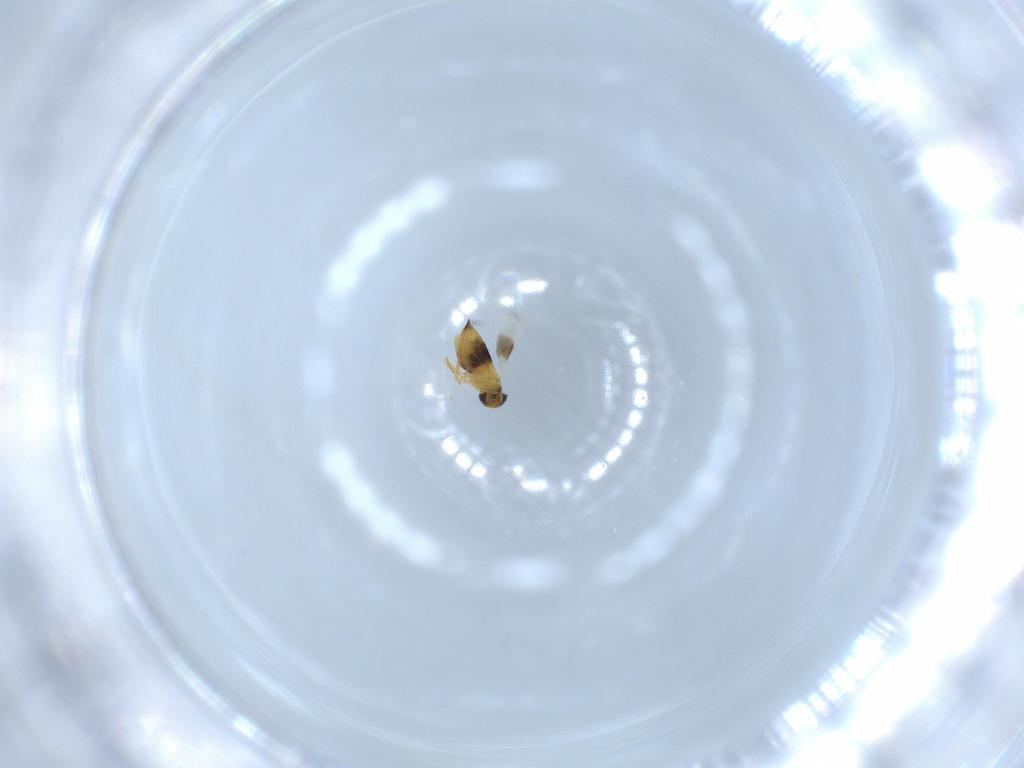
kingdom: Animalia
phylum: Arthropoda
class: Insecta
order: Hymenoptera
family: Signiphoridae
